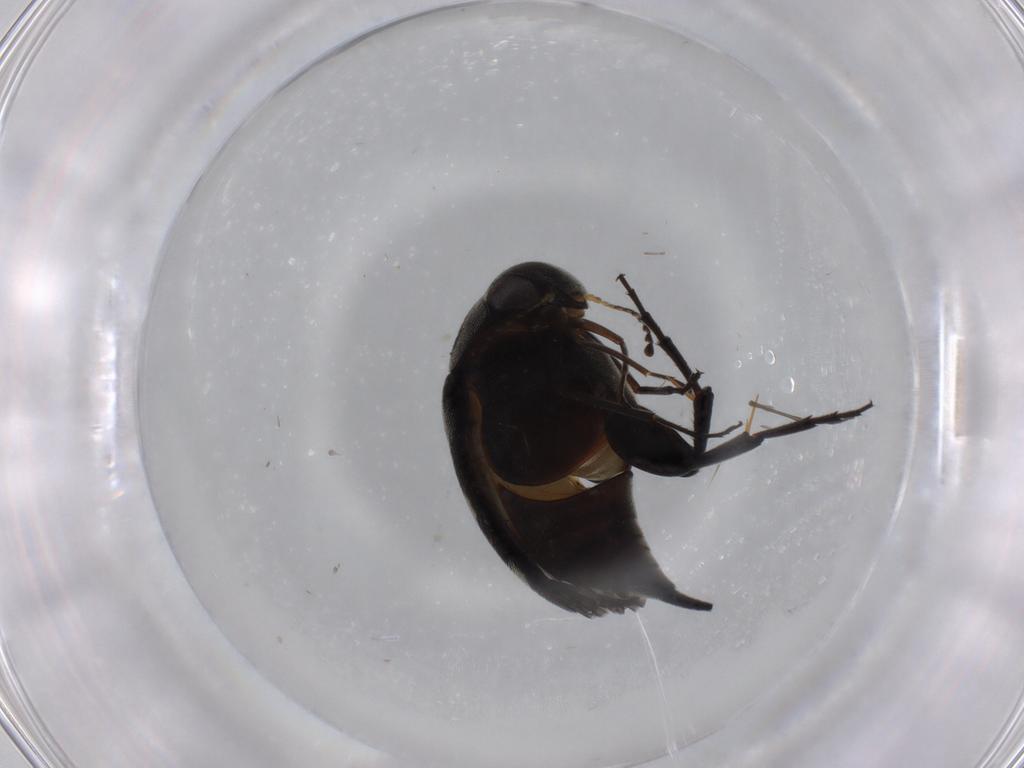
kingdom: Animalia
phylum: Arthropoda
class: Insecta
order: Coleoptera
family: Mordellidae
